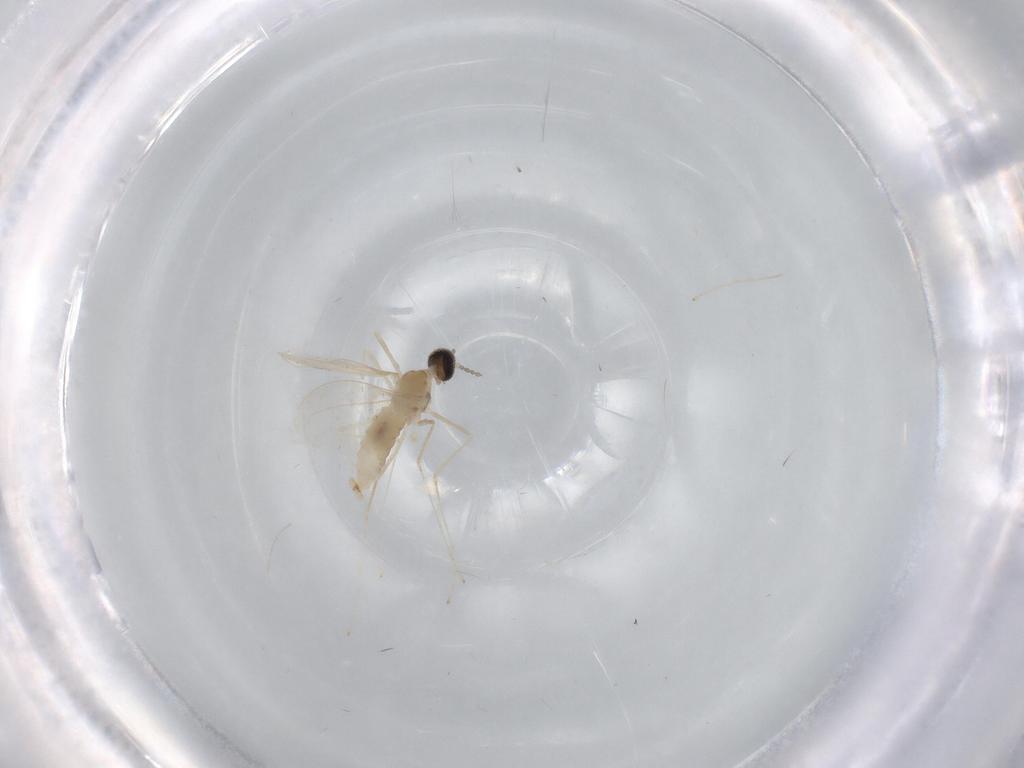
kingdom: Animalia
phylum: Arthropoda
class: Insecta
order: Diptera
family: Cecidomyiidae
